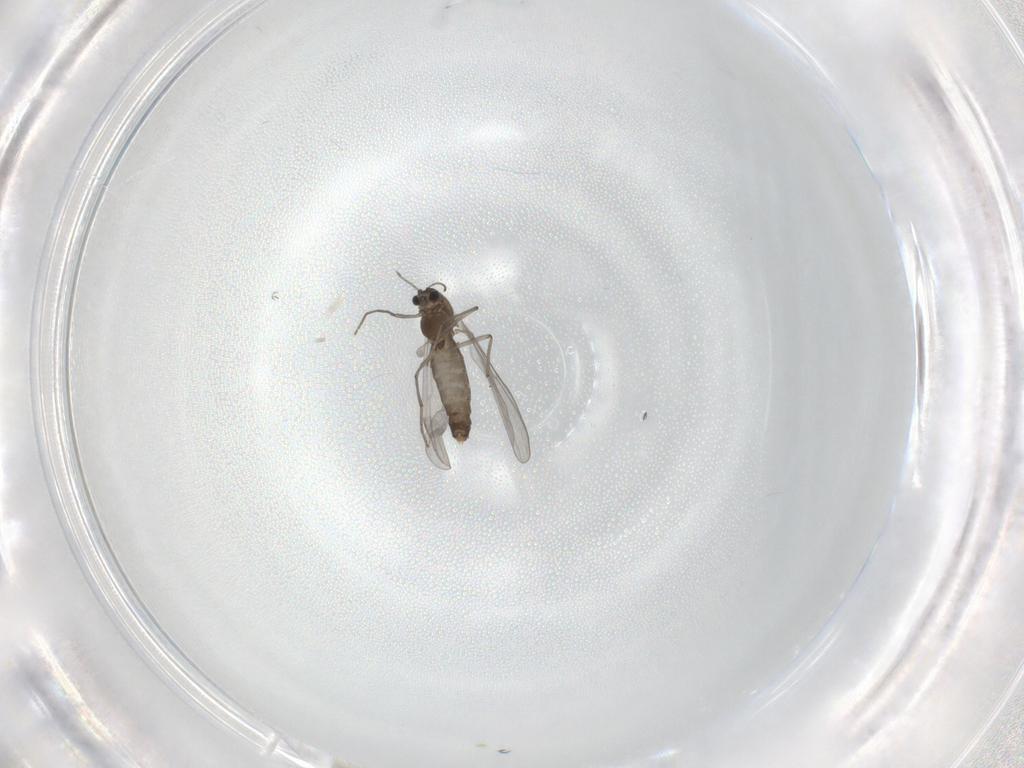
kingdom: Animalia
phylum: Arthropoda
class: Insecta
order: Diptera
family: Chironomidae
